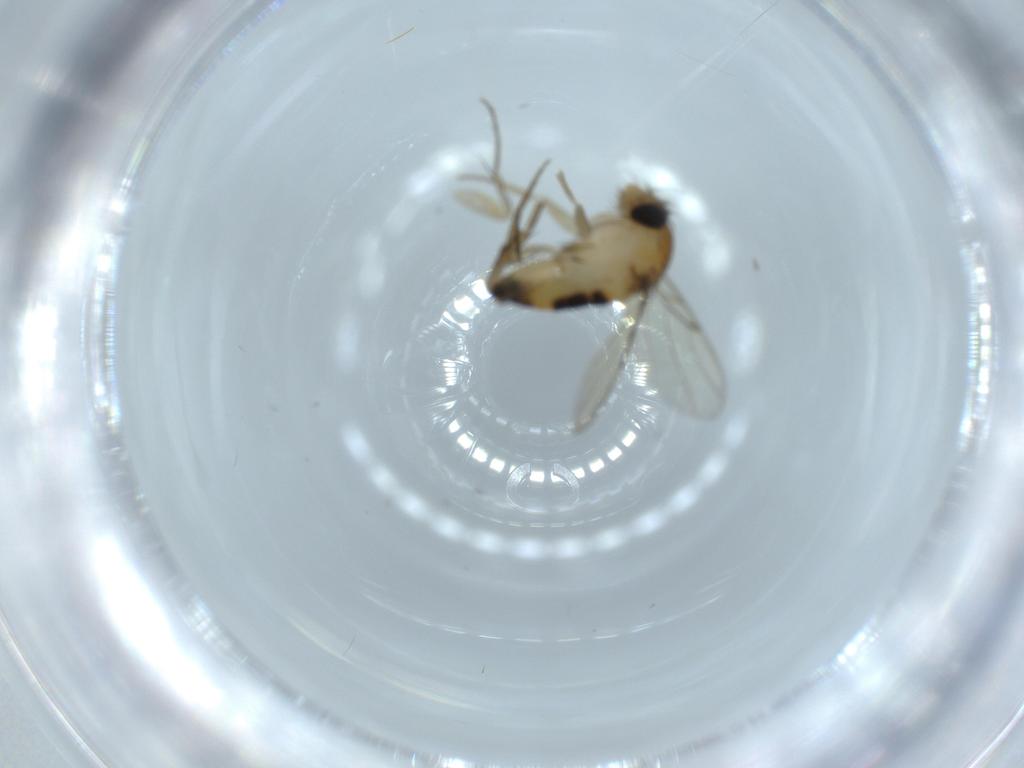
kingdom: Animalia
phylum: Arthropoda
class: Insecta
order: Diptera
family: Phoridae
